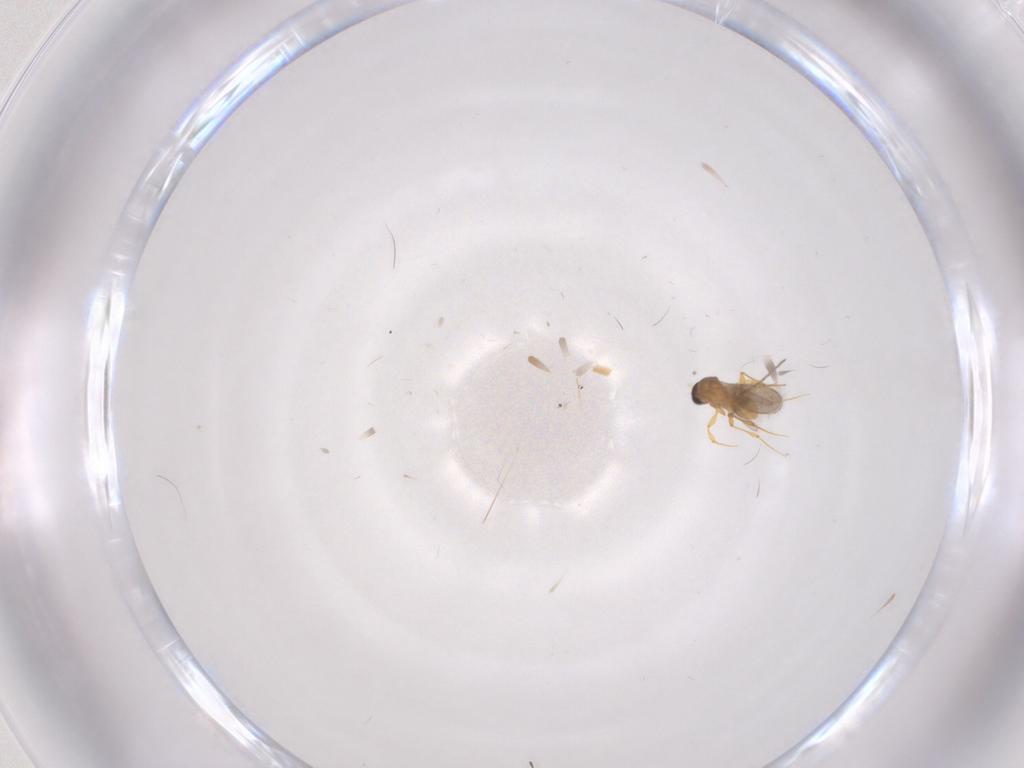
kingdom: Animalia
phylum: Arthropoda
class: Insecta
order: Hymenoptera
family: Platygastridae
